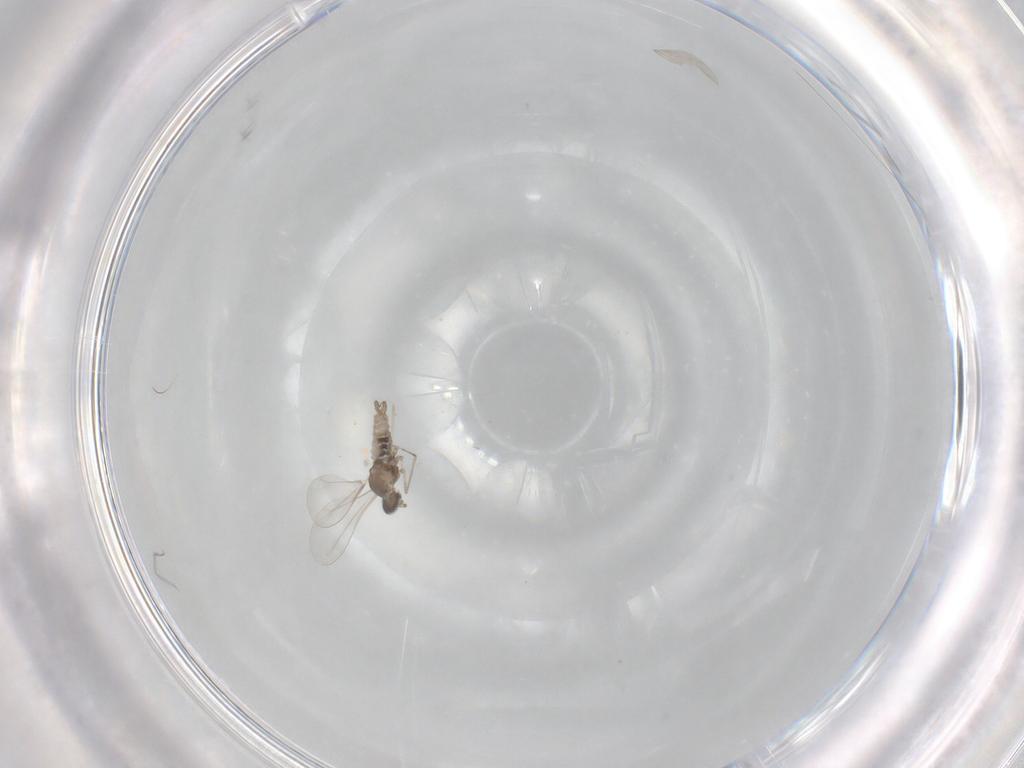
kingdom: Animalia
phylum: Arthropoda
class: Insecta
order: Diptera
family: Cecidomyiidae
